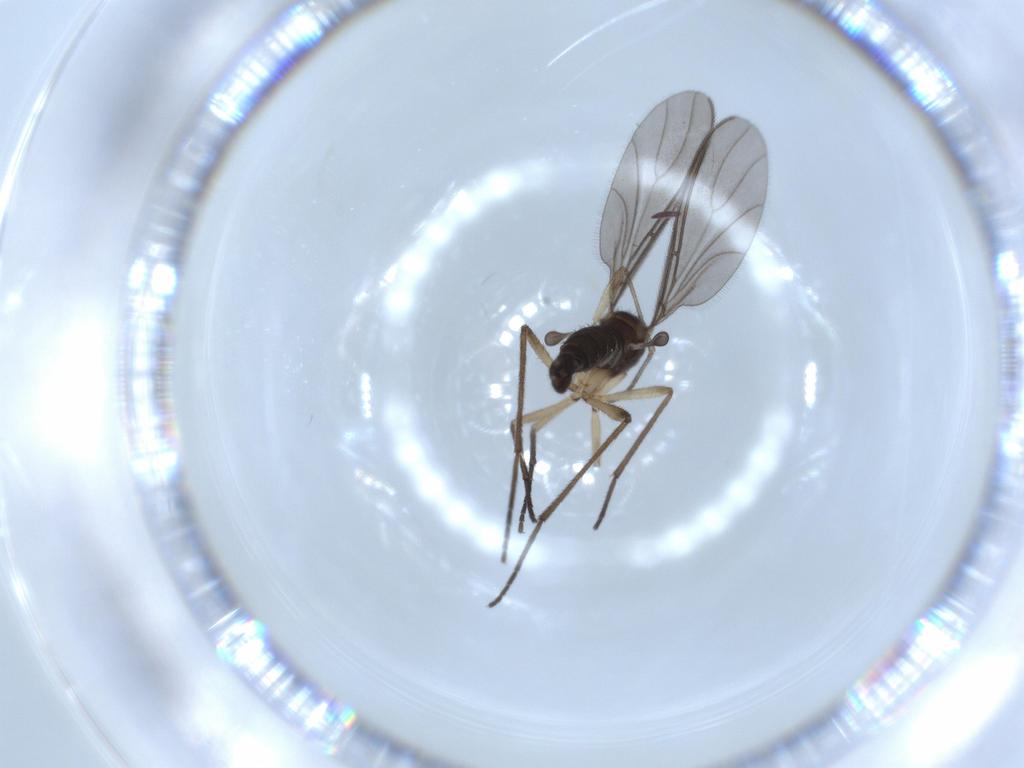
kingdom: Animalia
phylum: Arthropoda
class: Insecta
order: Diptera
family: Sciaridae
